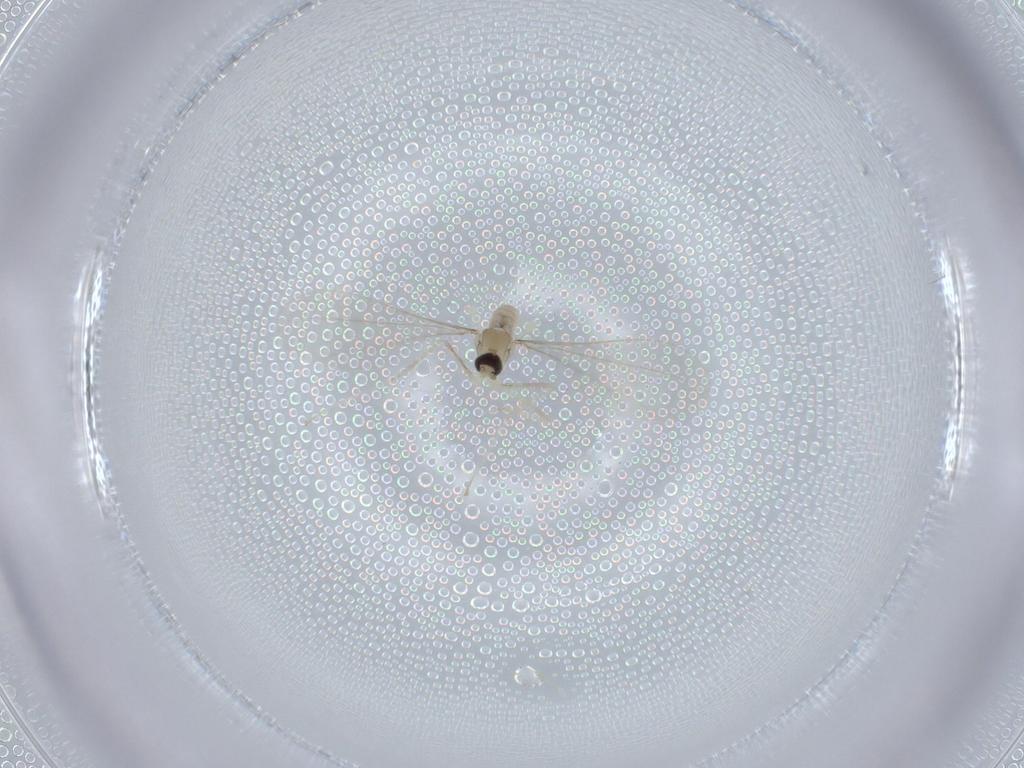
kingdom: Animalia
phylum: Arthropoda
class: Insecta
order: Diptera
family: Cecidomyiidae
